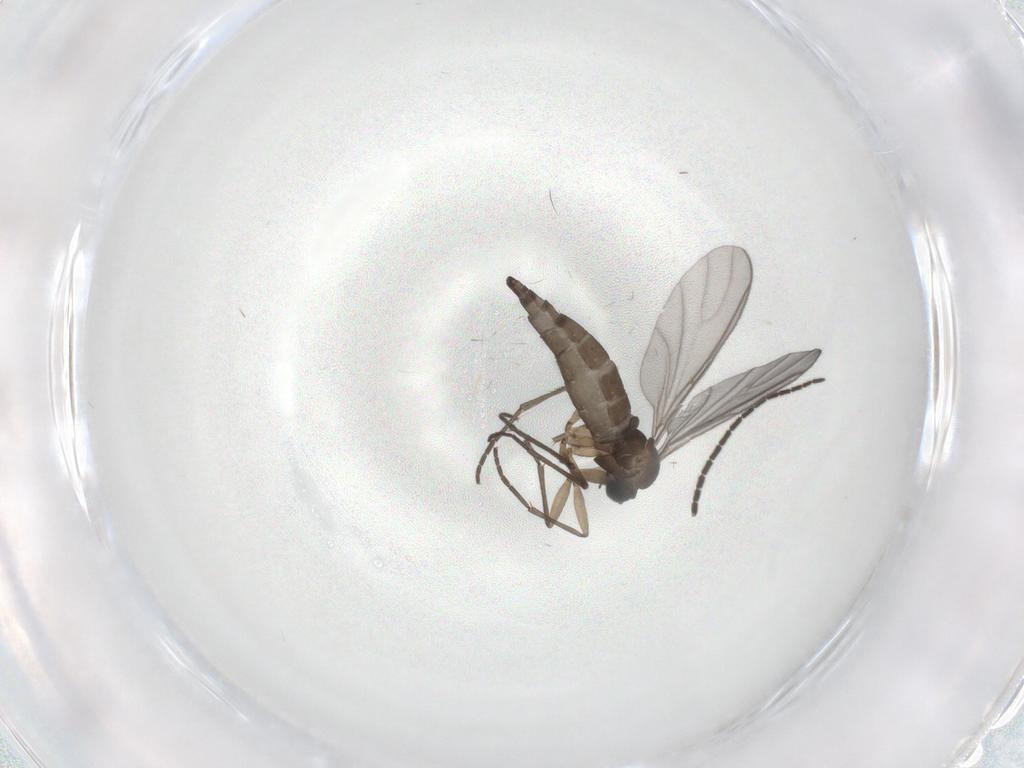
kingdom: Animalia
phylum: Arthropoda
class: Insecta
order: Diptera
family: Sciaridae
